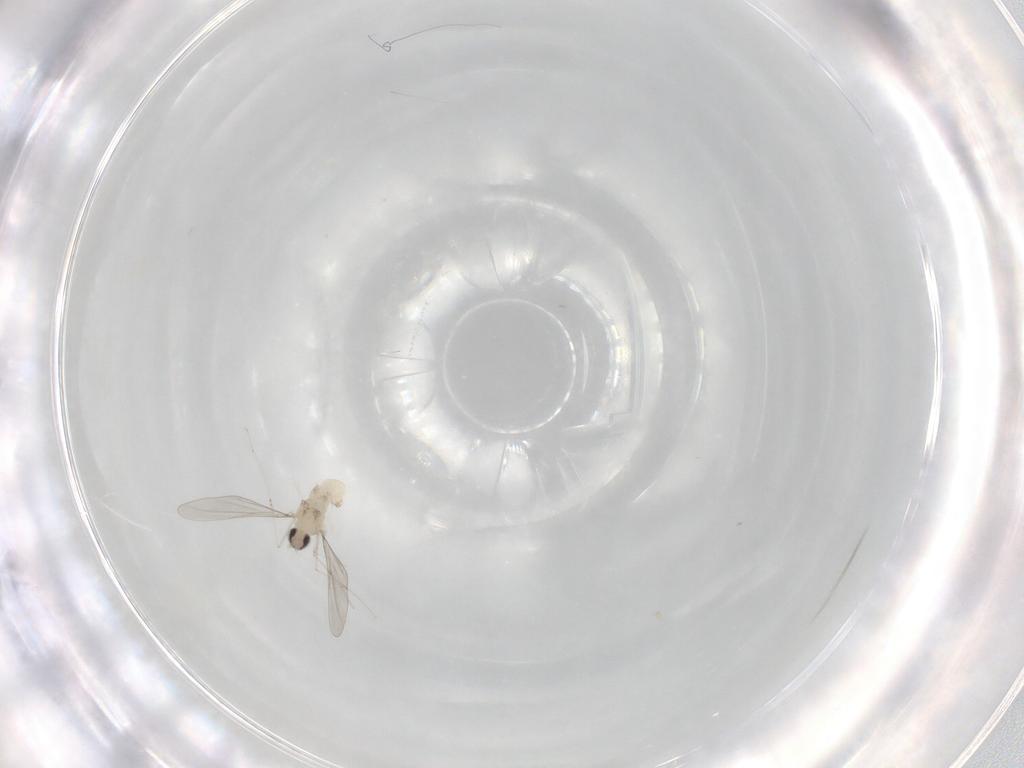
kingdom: Animalia
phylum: Arthropoda
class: Insecta
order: Diptera
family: Cecidomyiidae
